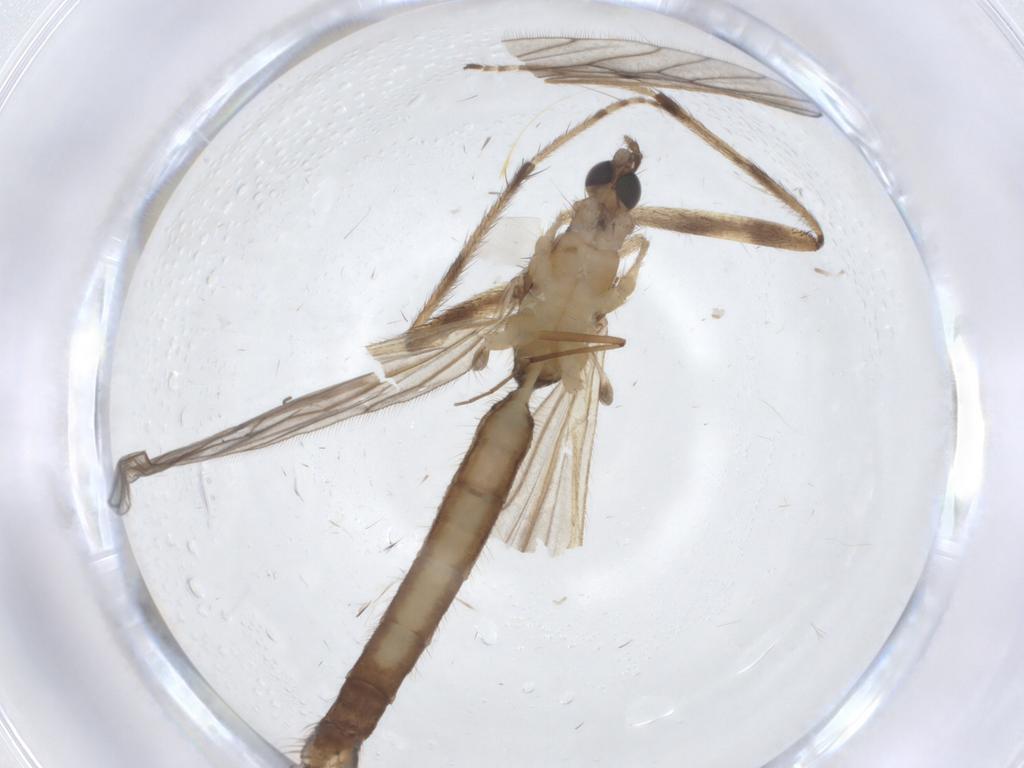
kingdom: Animalia
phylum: Arthropoda
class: Insecta
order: Diptera
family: Limoniidae
